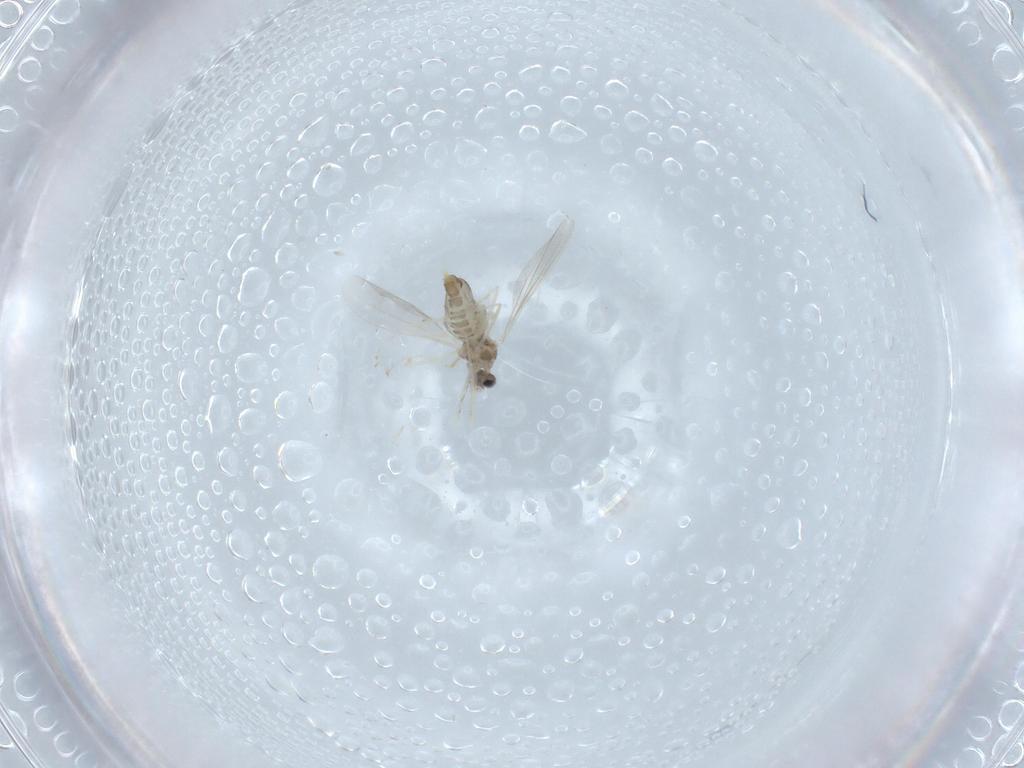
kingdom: Animalia
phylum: Arthropoda
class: Insecta
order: Diptera
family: Cecidomyiidae
